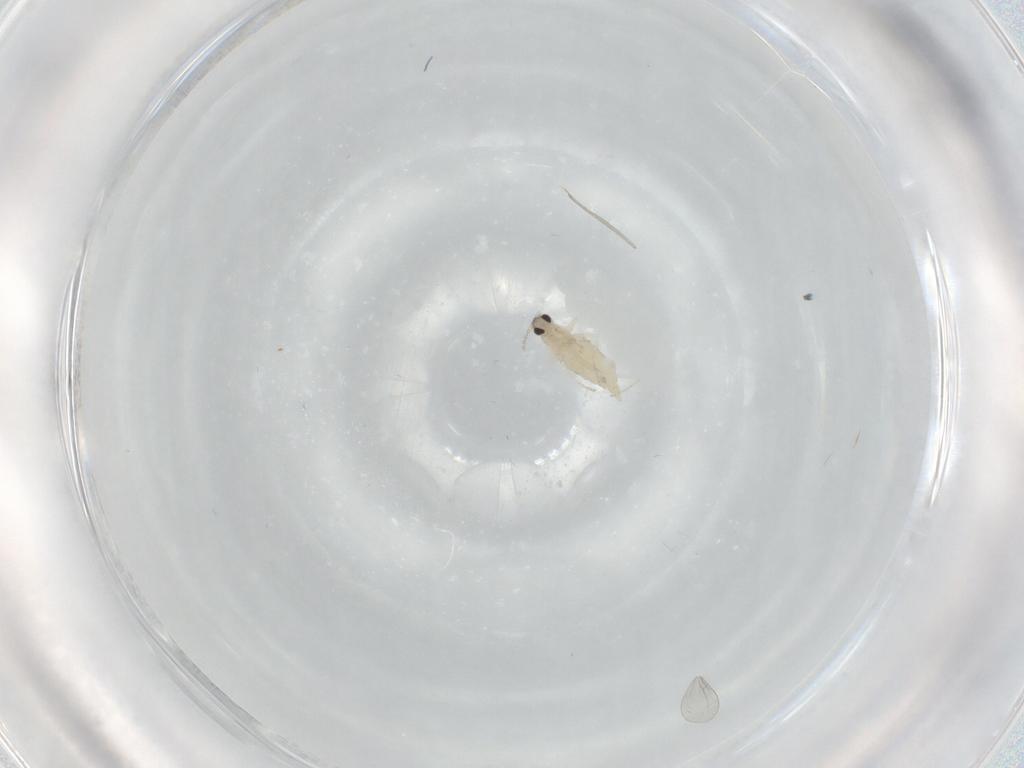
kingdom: Animalia
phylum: Arthropoda
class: Insecta
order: Diptera
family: Cecidomyiidae
